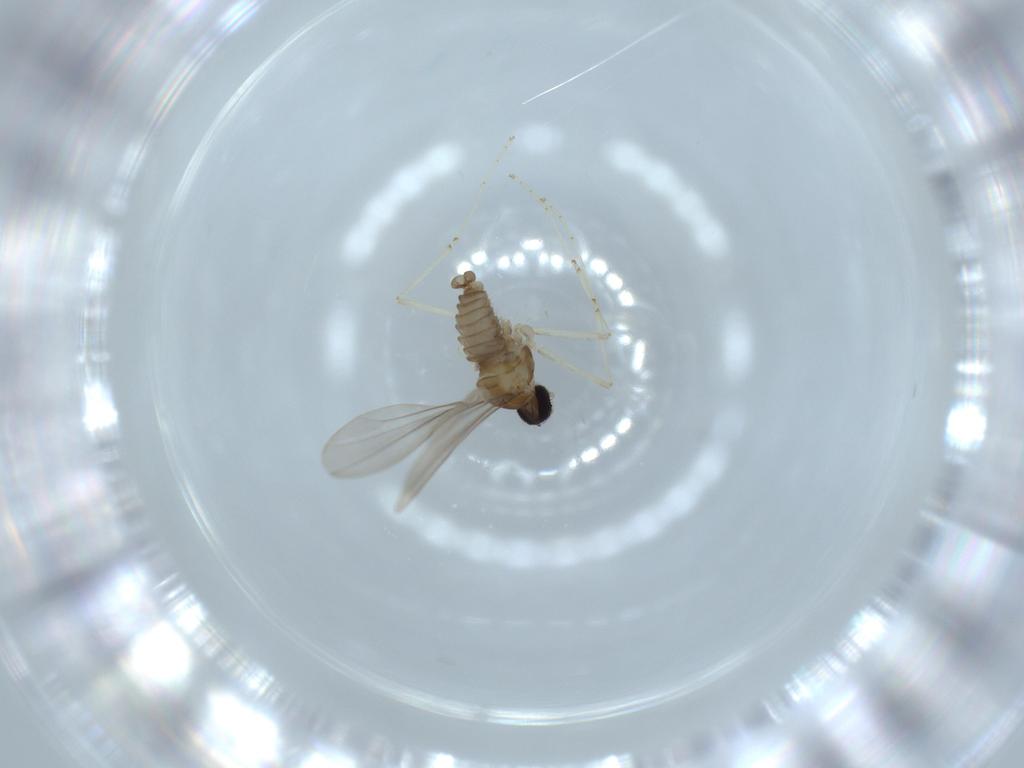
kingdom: Animalia
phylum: Arthropoda
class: Insecta
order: Diptera
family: Cecidomyiidae
